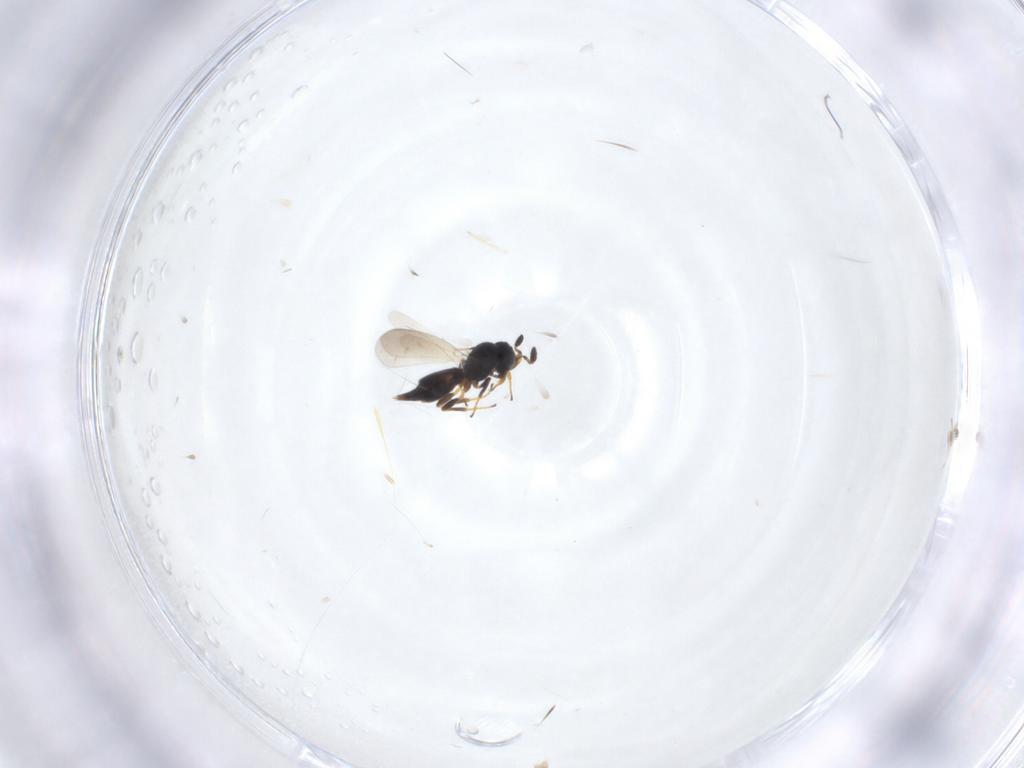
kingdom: Animalia
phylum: Arthropoda
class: Insecta
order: Hymenoptera
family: Platygastridae
